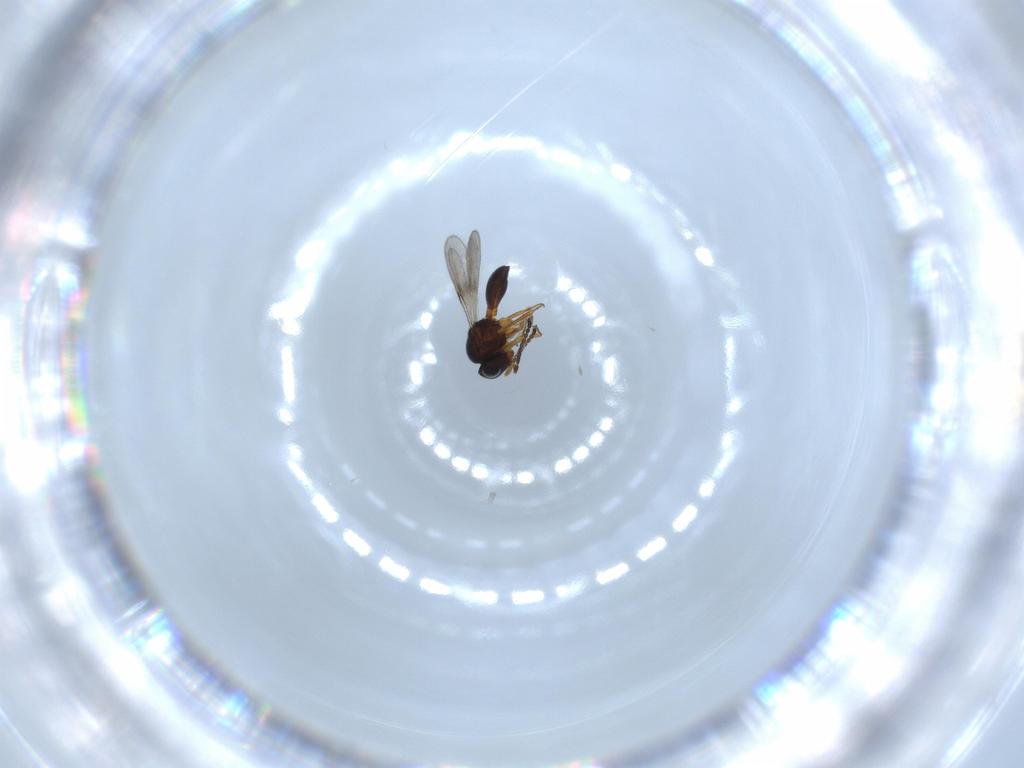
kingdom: Animalia
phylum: Arthropoda
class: Arachnida
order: Araneae
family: Pholcidae
